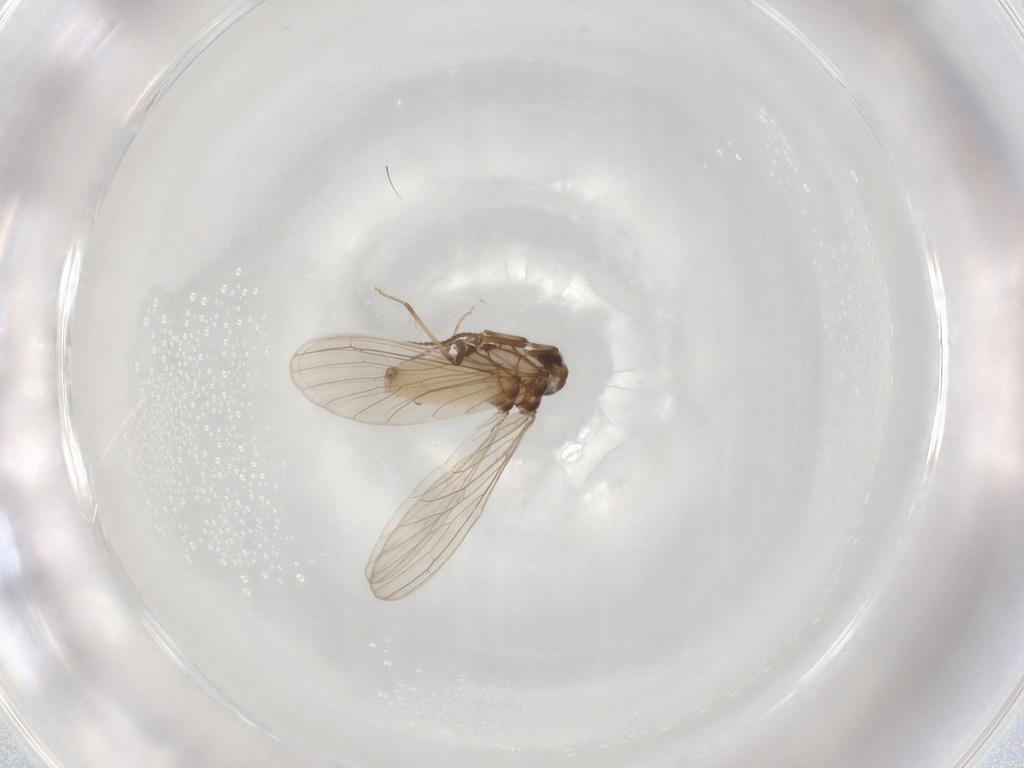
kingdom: Animalia
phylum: Arthropoda
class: Insecta
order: Neuroptera
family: Coniopterygidae
